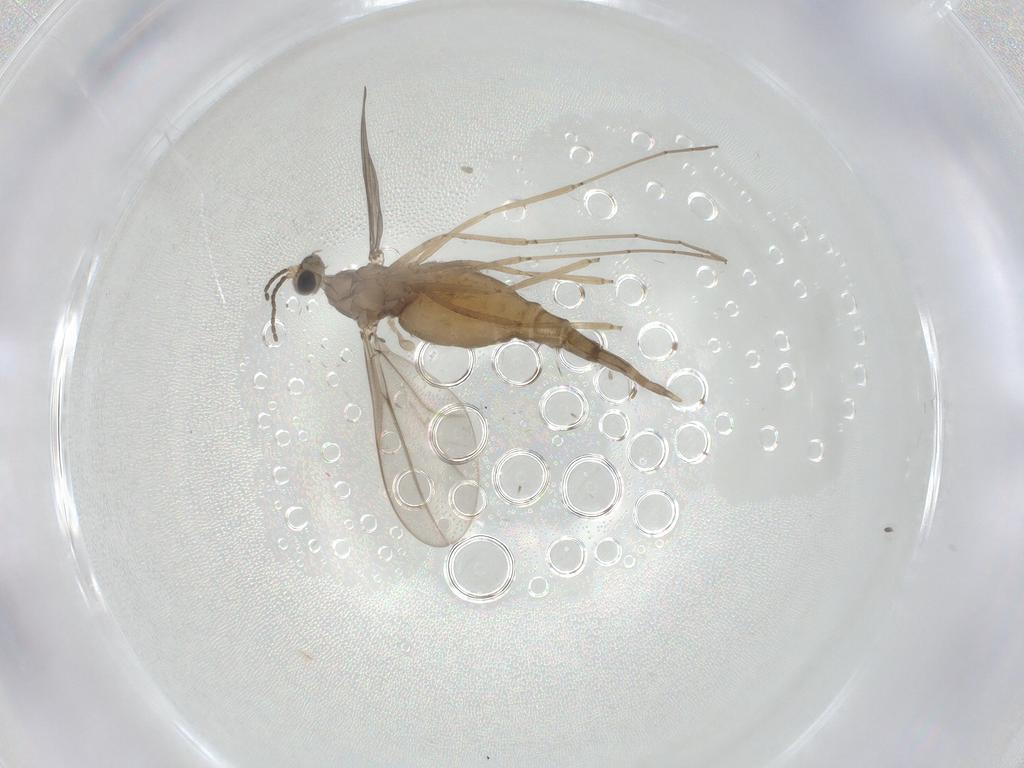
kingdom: Animalia
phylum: Arthropoda
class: Insecta
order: Diptera
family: Cecidomyiidae
